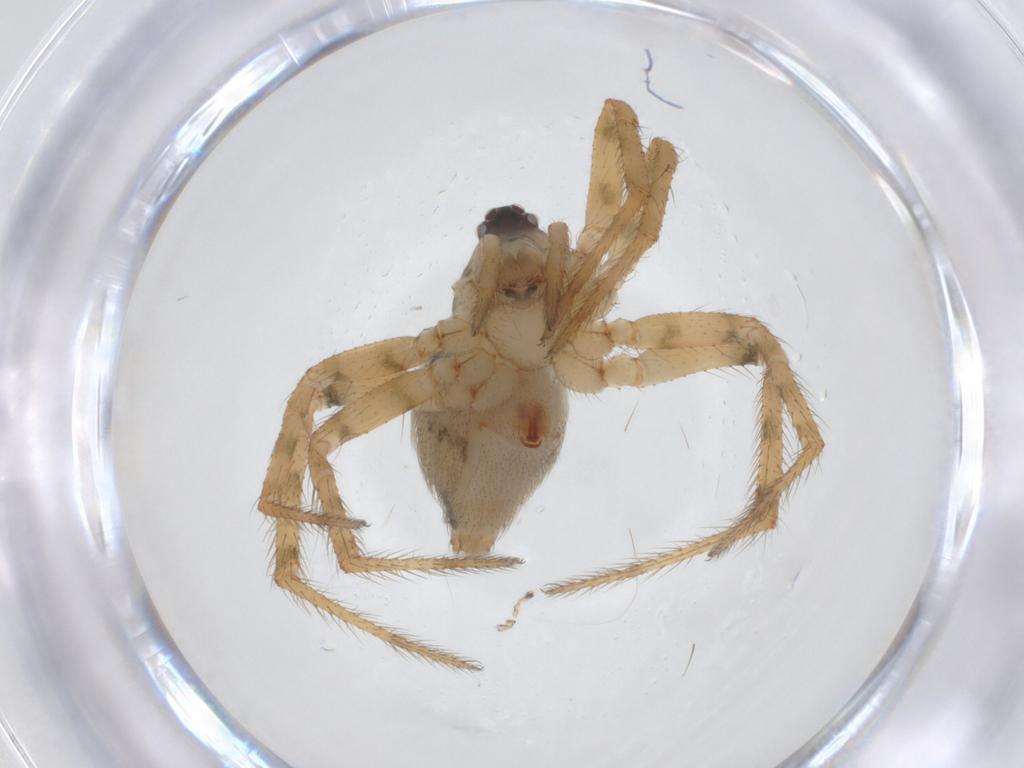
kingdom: Animalia
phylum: Arthropoda
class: Arachnida
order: Araneae
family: Theridiidae
